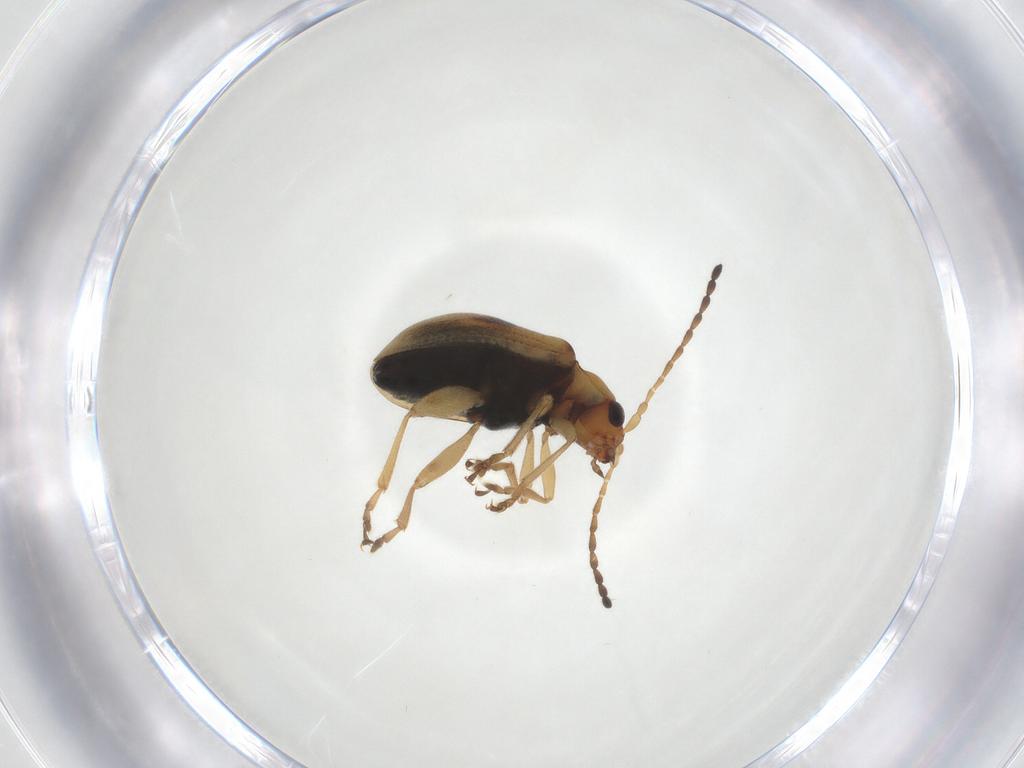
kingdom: Animalia
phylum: Arthropoda
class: Insecta
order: Coleoptera
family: Chrysomelidae
